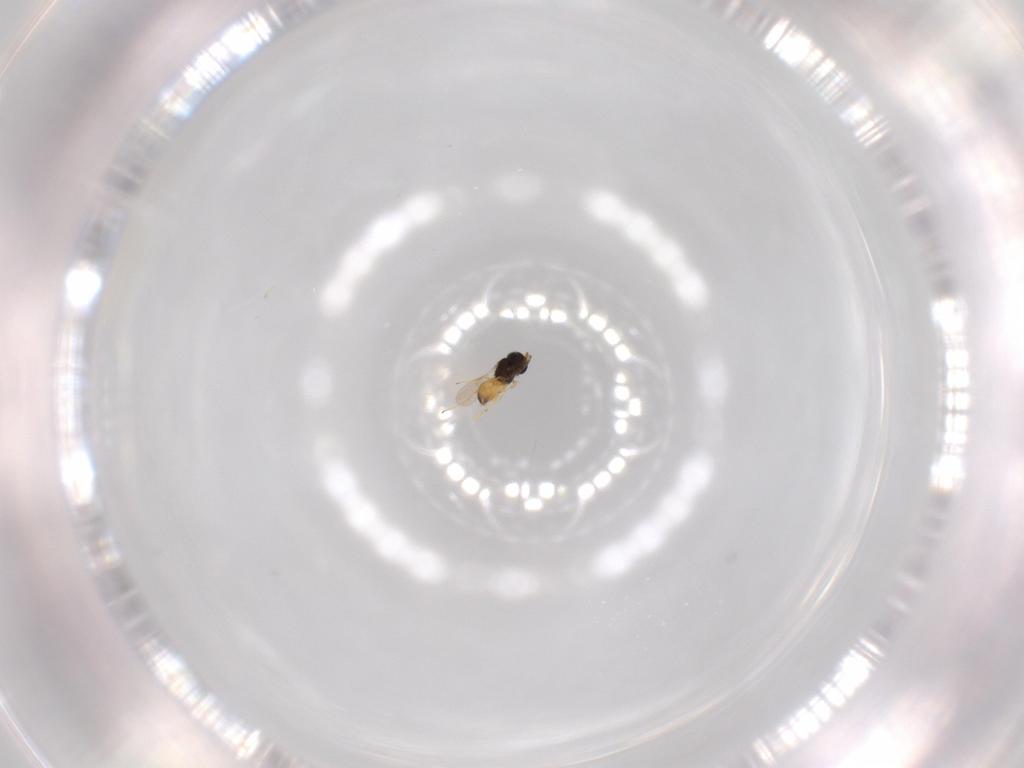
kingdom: Animalia
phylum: Arthropoda
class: Insecta
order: Hymenoptera
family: Scelionidae
